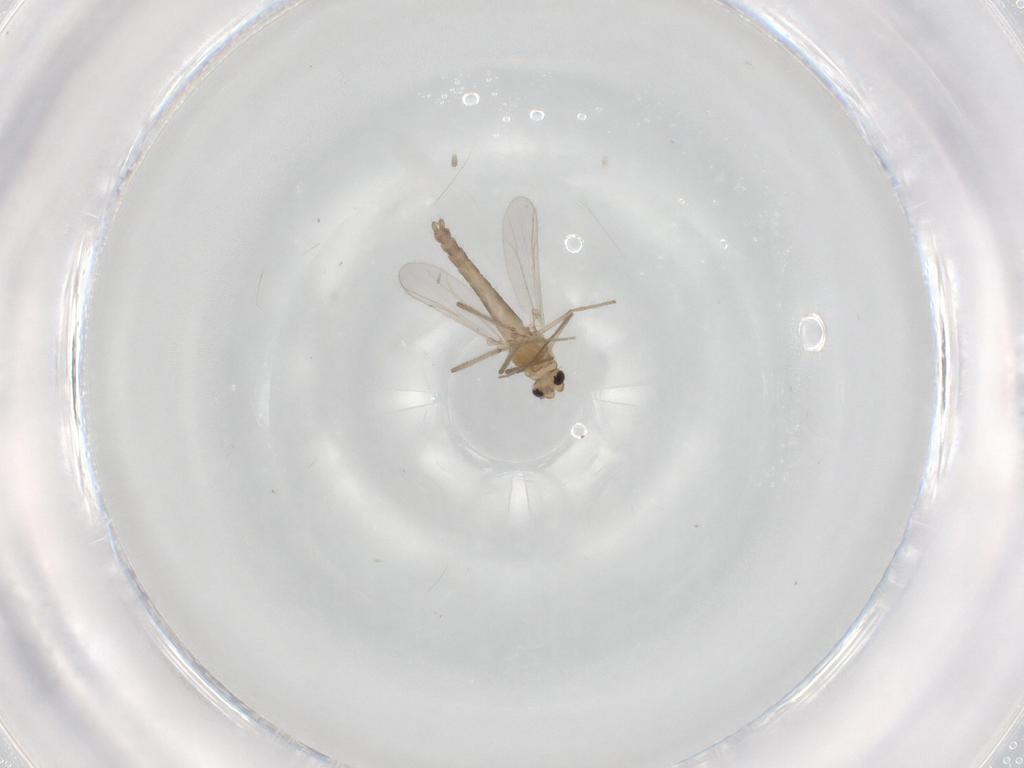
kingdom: Animalia
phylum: Arthropoda
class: Insecta
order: Diptera
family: Chironomidae
